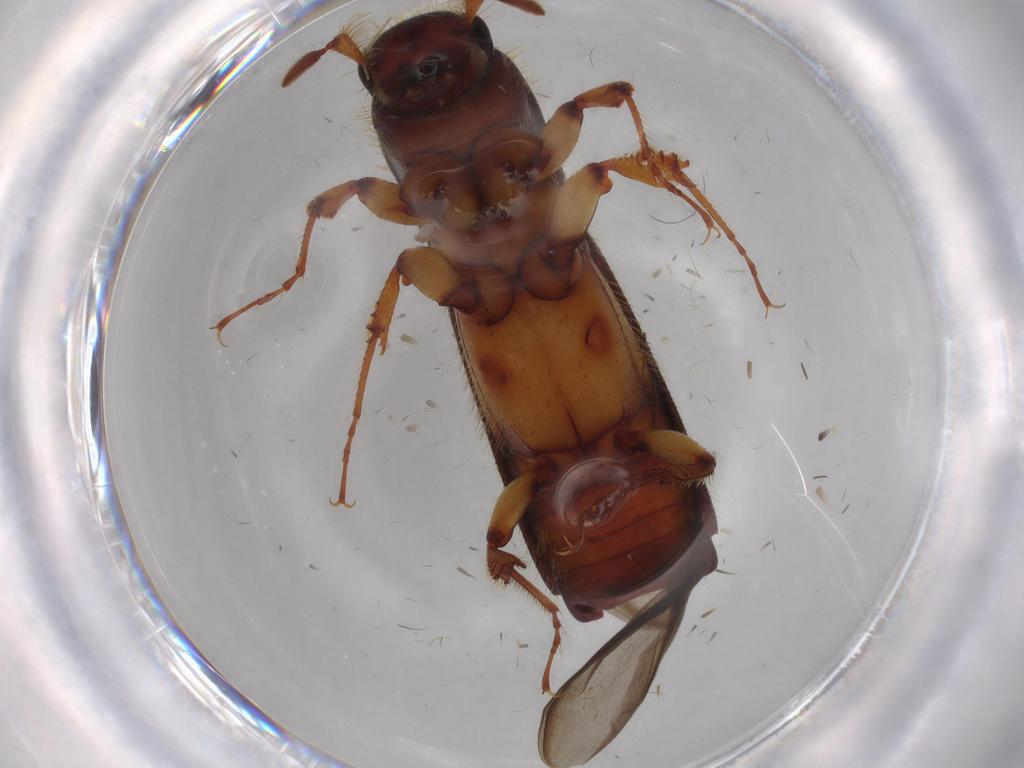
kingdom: Animalia
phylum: Arthropoda
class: Insecta
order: Coleoptera
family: Curculionidae
